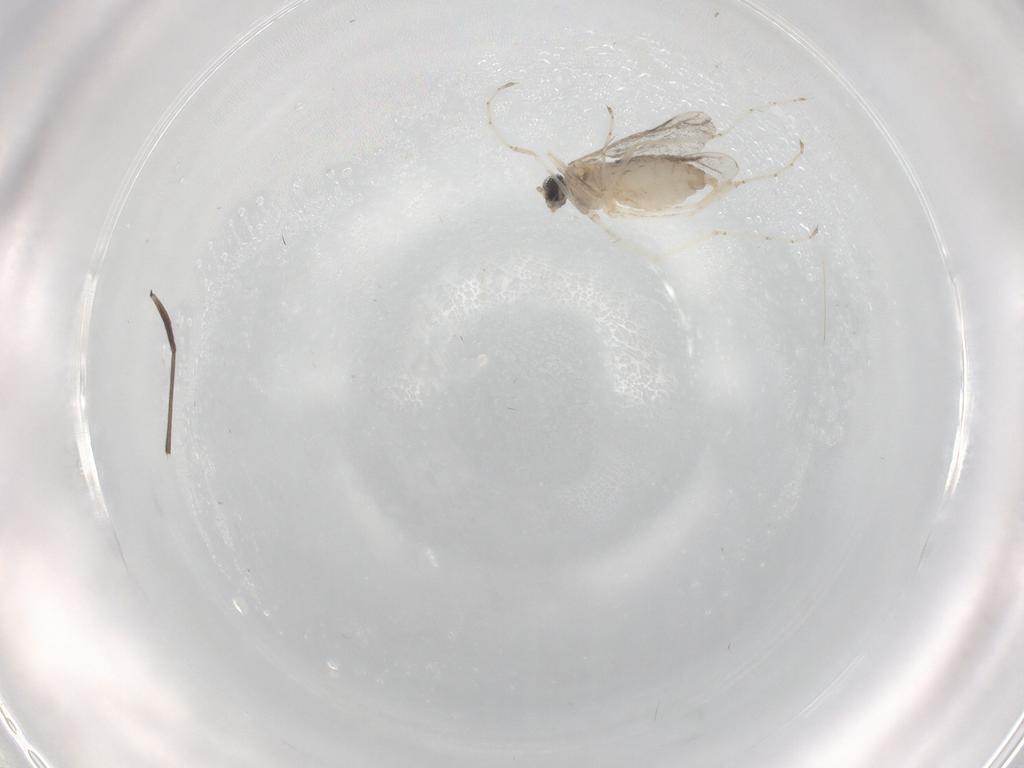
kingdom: Animalia
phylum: Arthropoda
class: Insecta
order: Diptera
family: Cecidomyiidae
